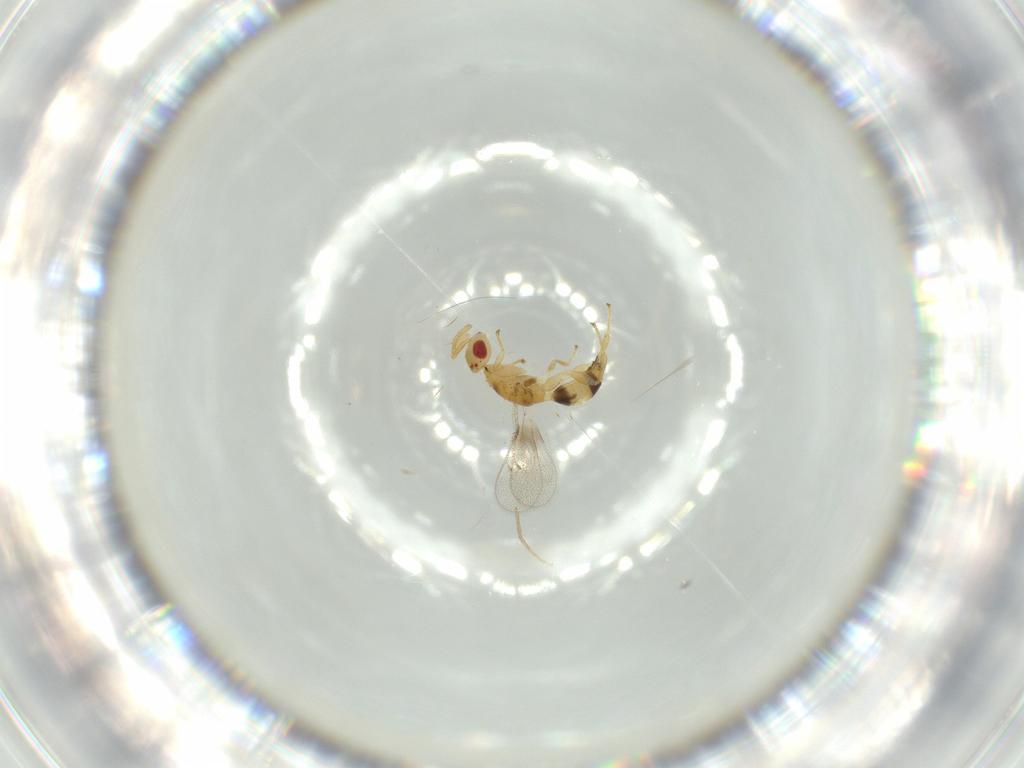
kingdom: Animalia
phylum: Arthropoda
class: Insecta
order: Hymenoptera
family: Torymidae
